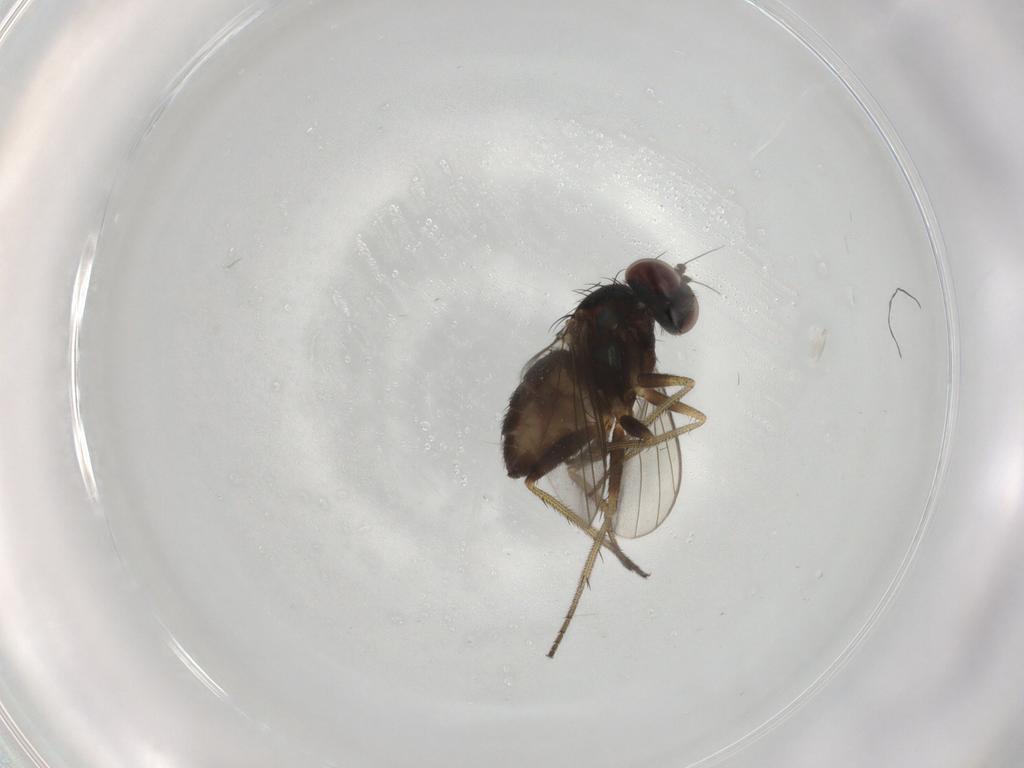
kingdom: Animalia
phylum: Arthropoda
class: Insecta
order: Diptera
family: Dolichopodidae
